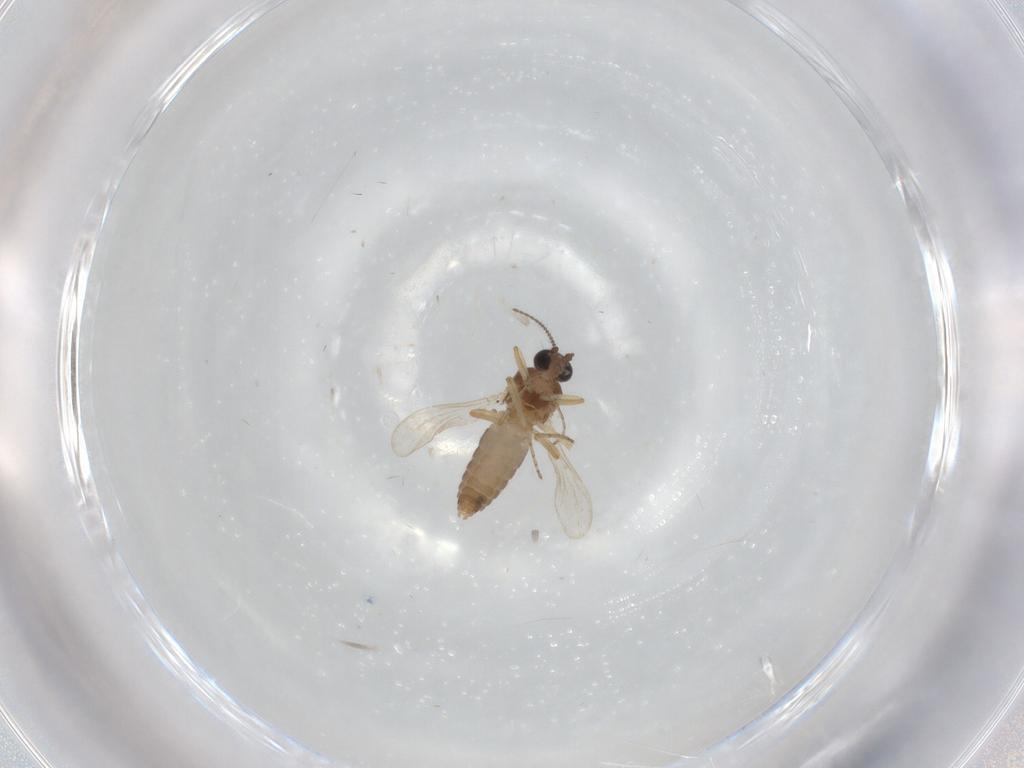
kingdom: Animalia
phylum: Arthropoda
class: Insecta
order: Diptera
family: Ceratopogonidae
